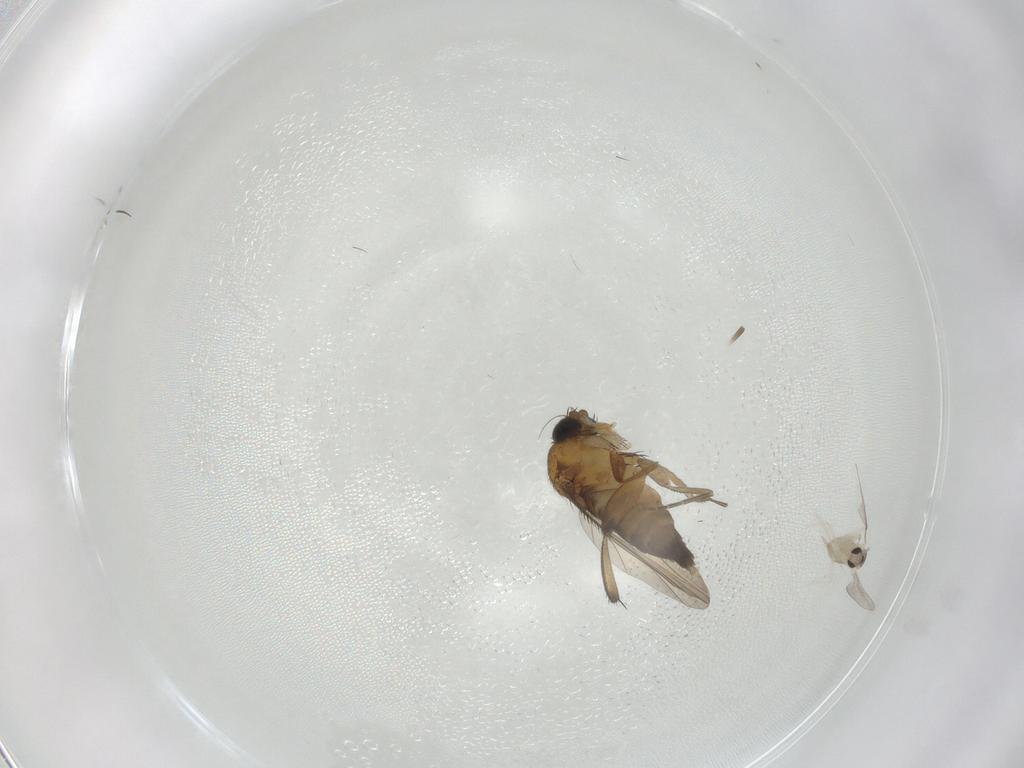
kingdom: Animalia
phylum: Arthropoda
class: Insecta
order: Diptera
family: Phoridae
